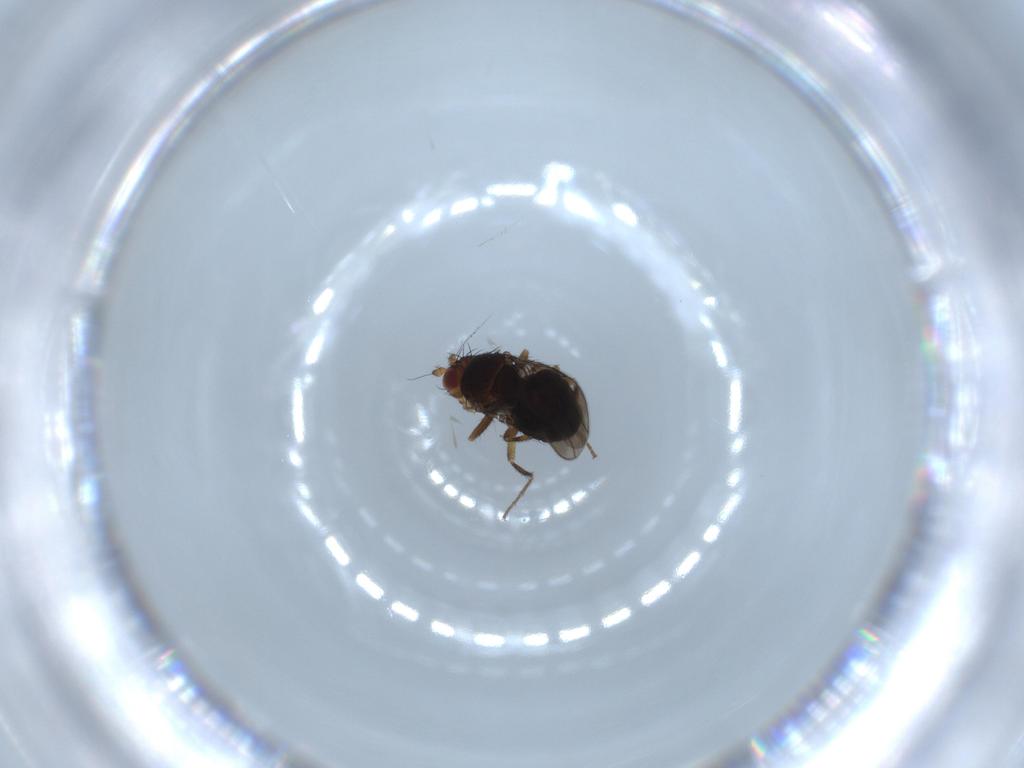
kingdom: Animalia
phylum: Arthropoda
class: Insecta
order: Diptera
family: Sphaeroceridae
